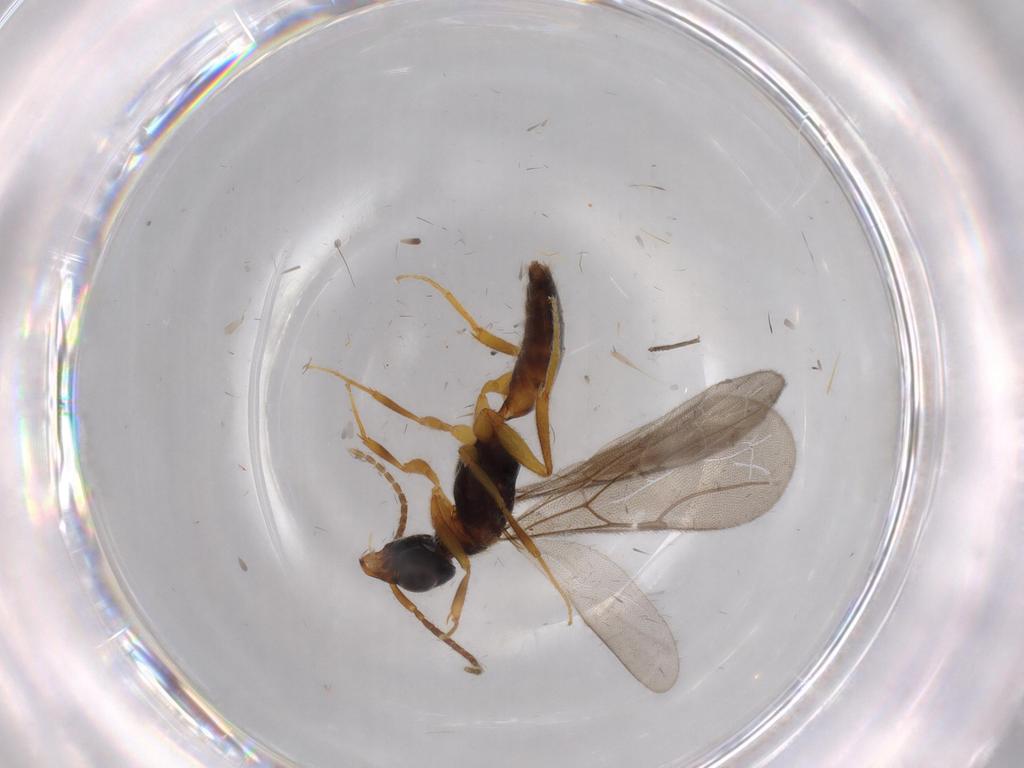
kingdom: Animalia
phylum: Arthropoda
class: Insecta
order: Hymenoptera
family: Bethylidae
